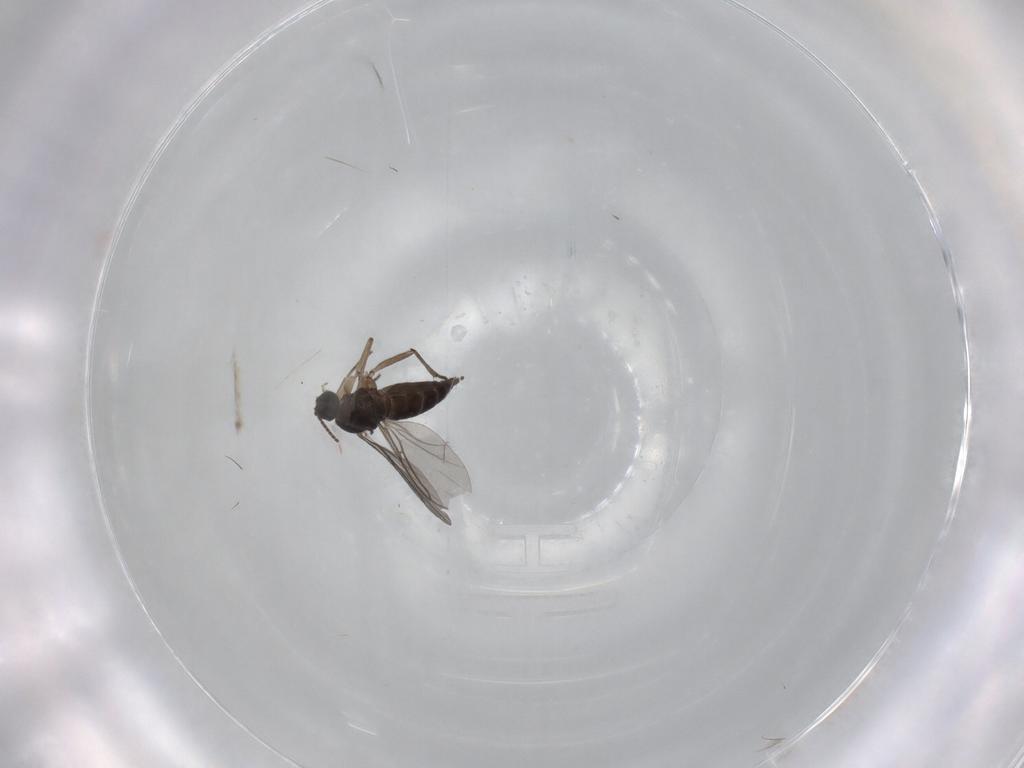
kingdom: Animalia
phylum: Arthropoda
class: Insecta
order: Diptera
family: Sciaridae
